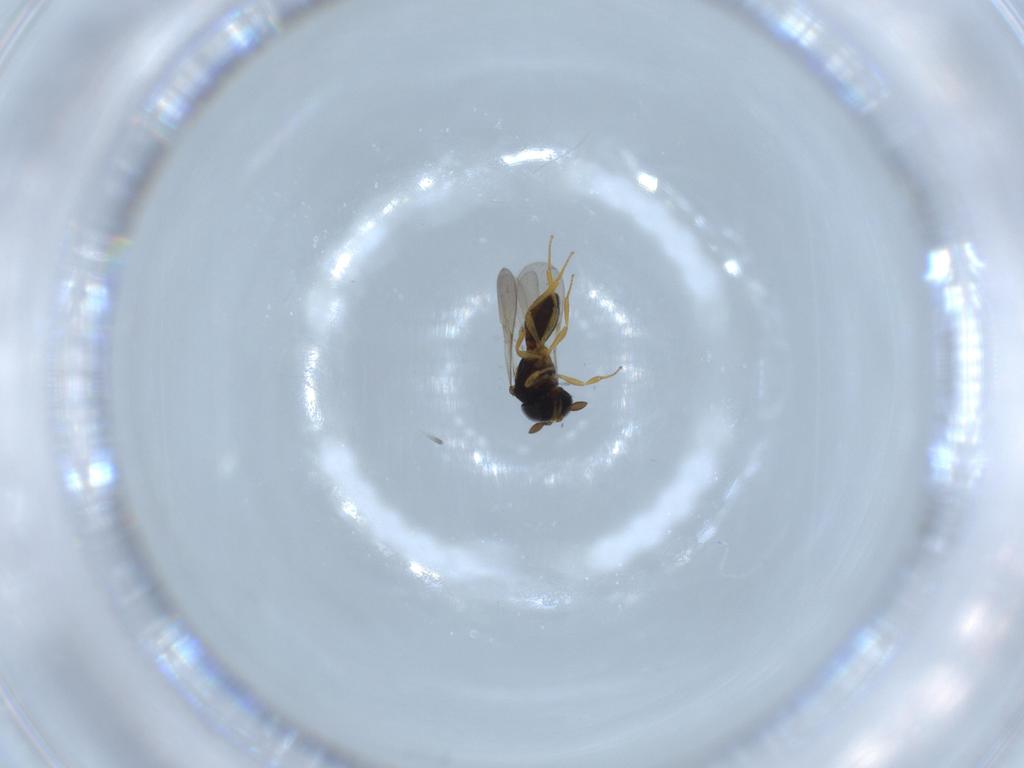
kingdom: Animalia
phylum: Arthropoda
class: Insecta
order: Hymenoptera
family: Scelionidae
